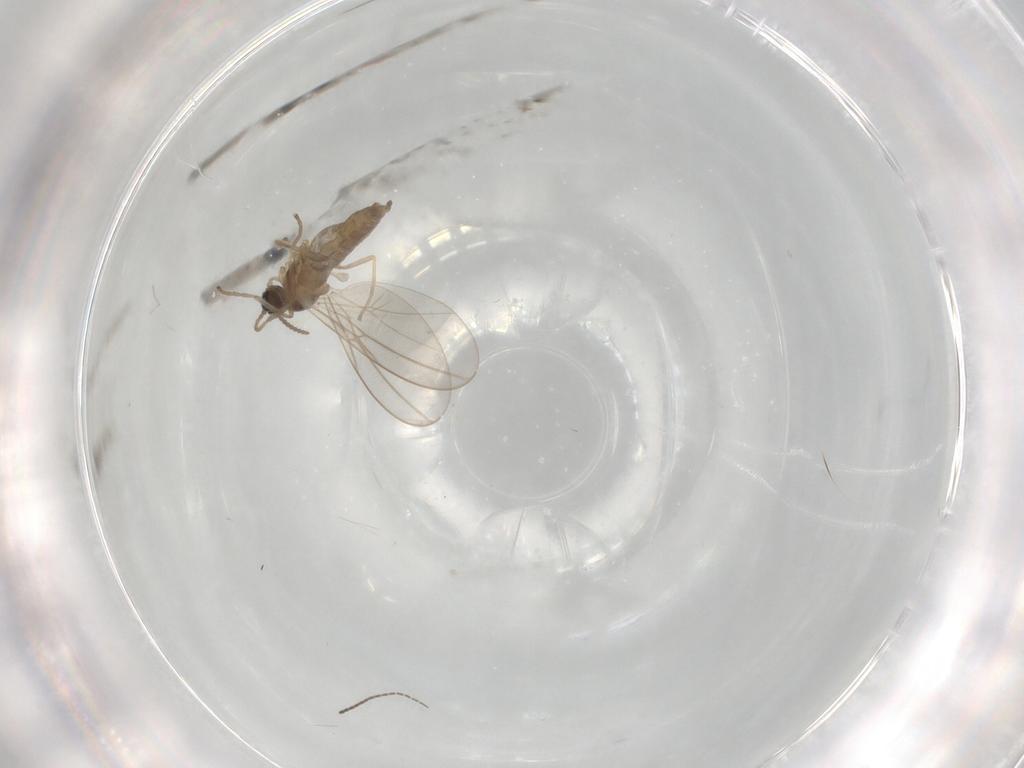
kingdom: Animalia
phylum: Arthropoda
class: Insecta
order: Diptera
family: Cecidomyiidae
